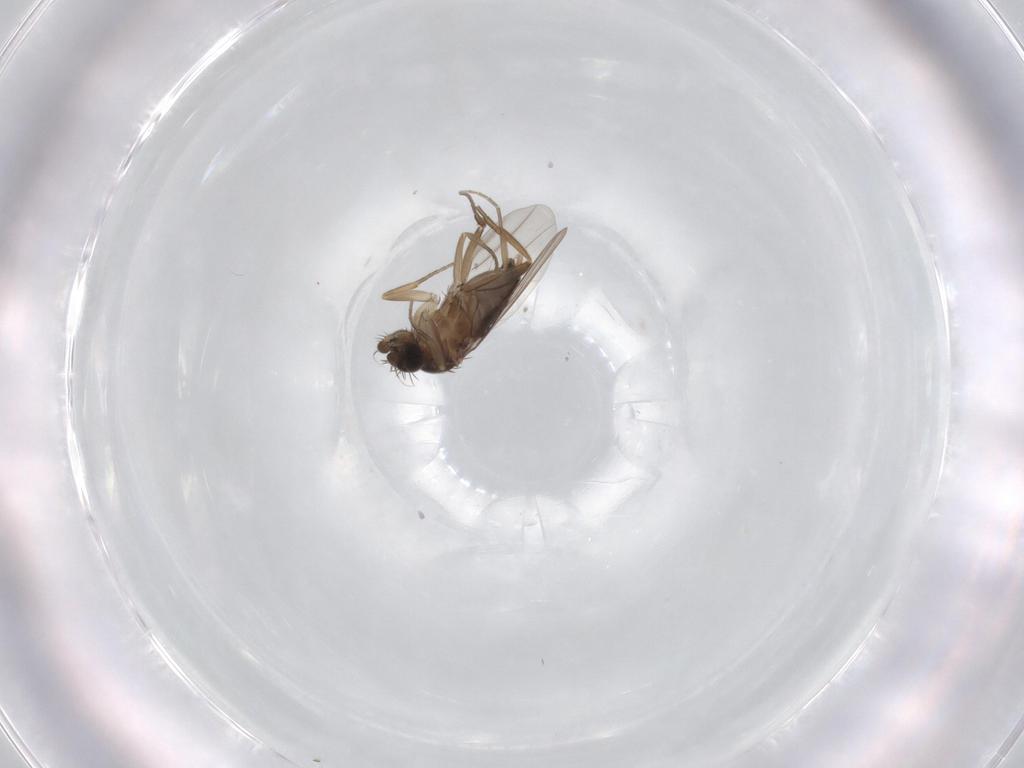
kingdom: Animalia
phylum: Arthropoda
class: Insecta
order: Diptera
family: Phoridae
